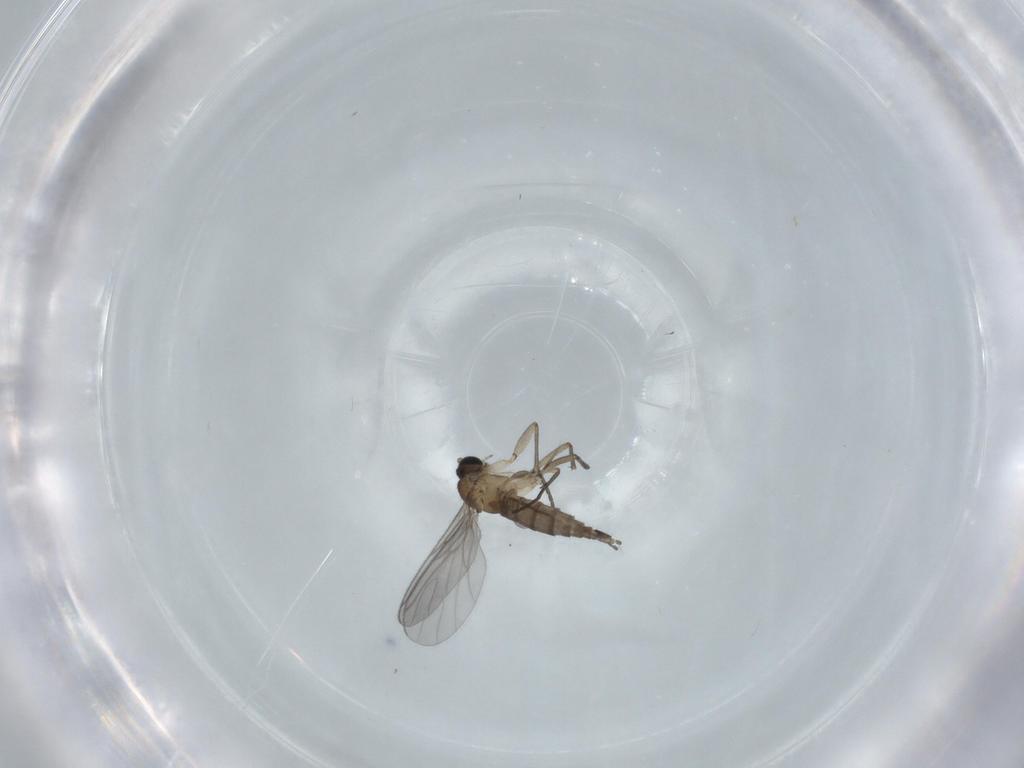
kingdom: Animalia
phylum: Arthropoda
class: Insecta
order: Diptera
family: Sciaridae
